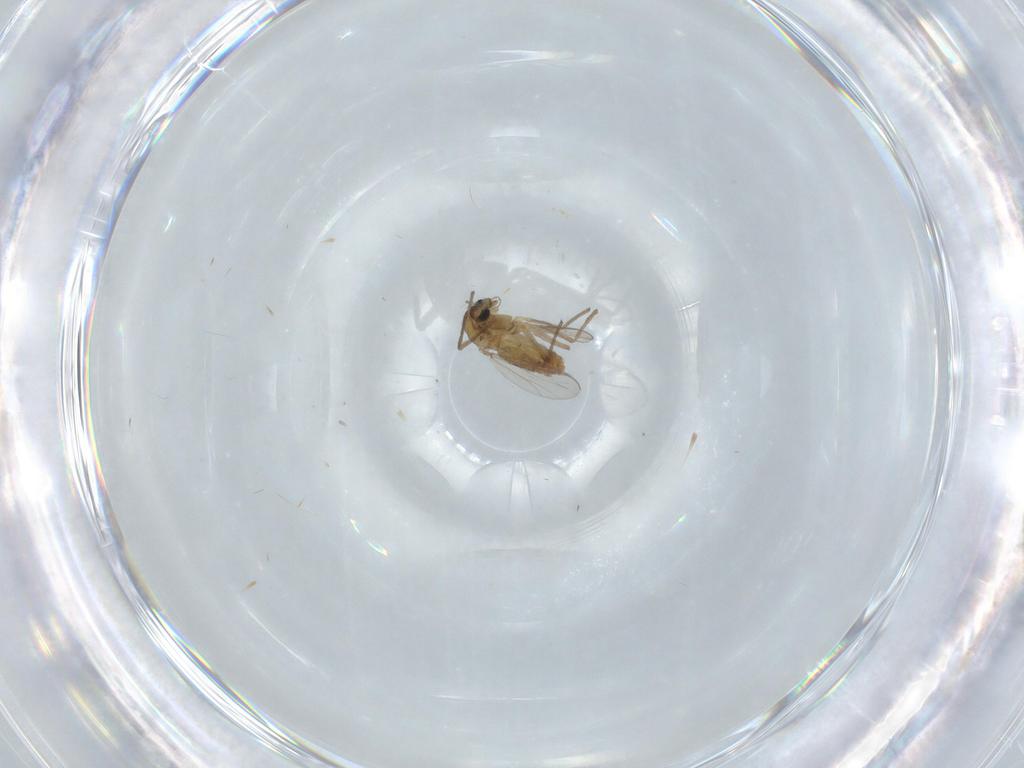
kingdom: Animalia
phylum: Arthropoda
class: Insecta
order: Diptera
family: Chironomidae
